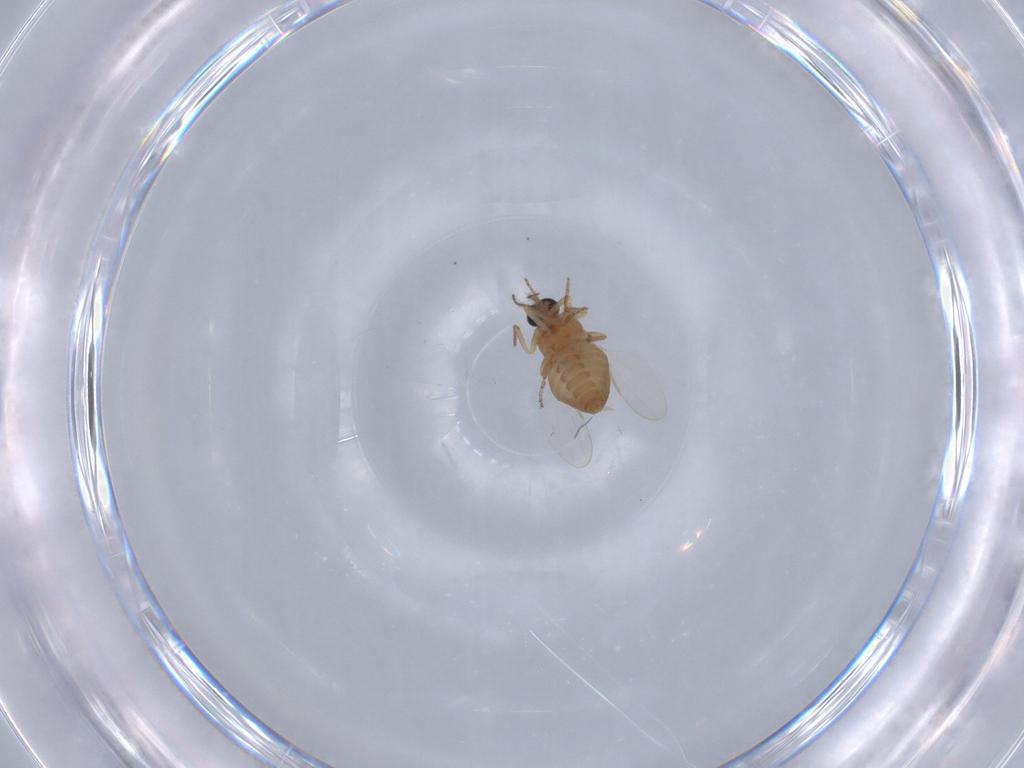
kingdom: Animalia
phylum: Arthropoda
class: Insecta
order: Diptera
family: Ceratopogonidae
